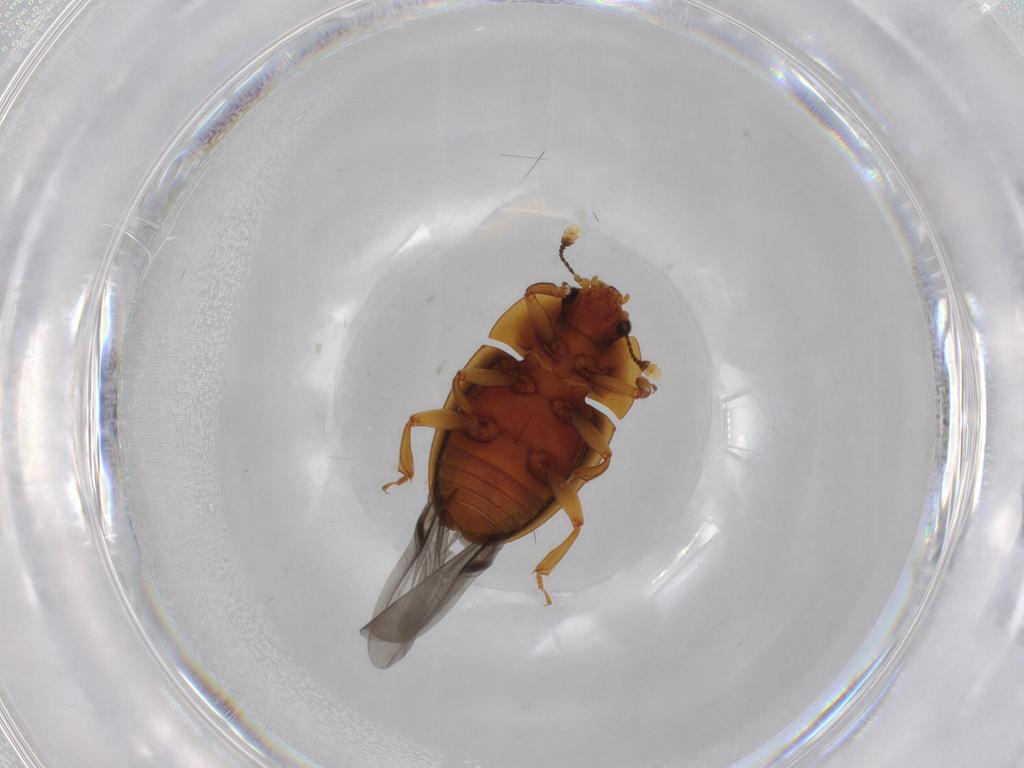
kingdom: Animalia
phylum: Arthropoda
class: Insecta
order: Coleoptera
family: Nitidulidae
